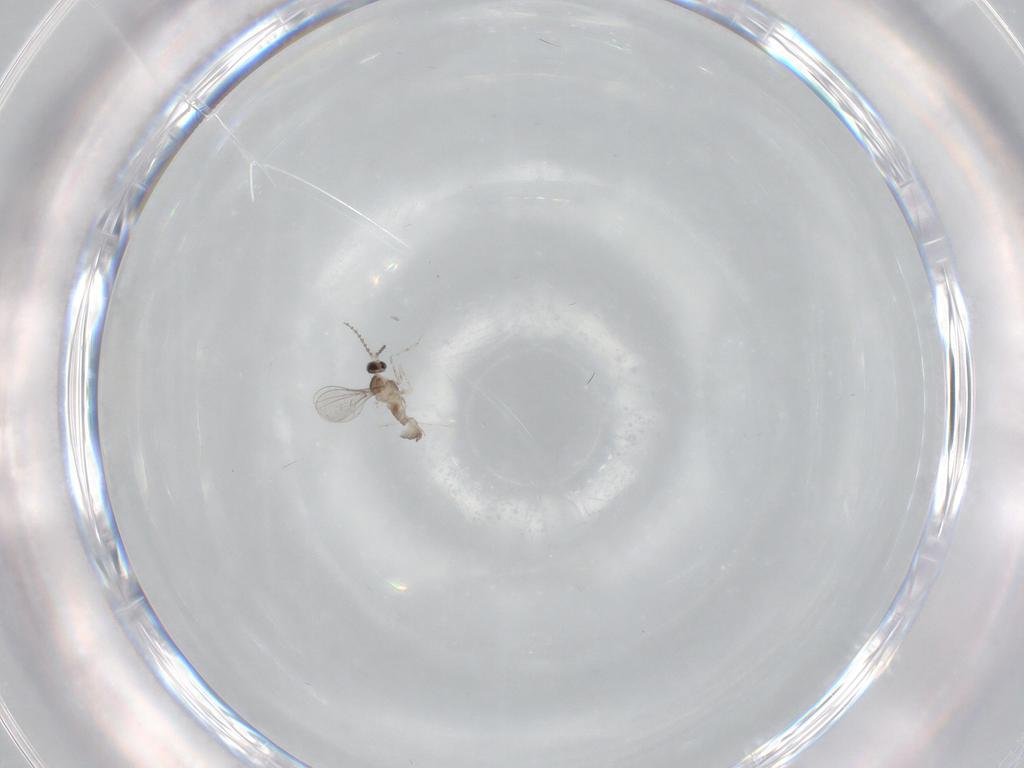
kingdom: Animalia
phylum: Arthropoda
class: Insecta
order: Diptera
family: Cecidomyiidae
